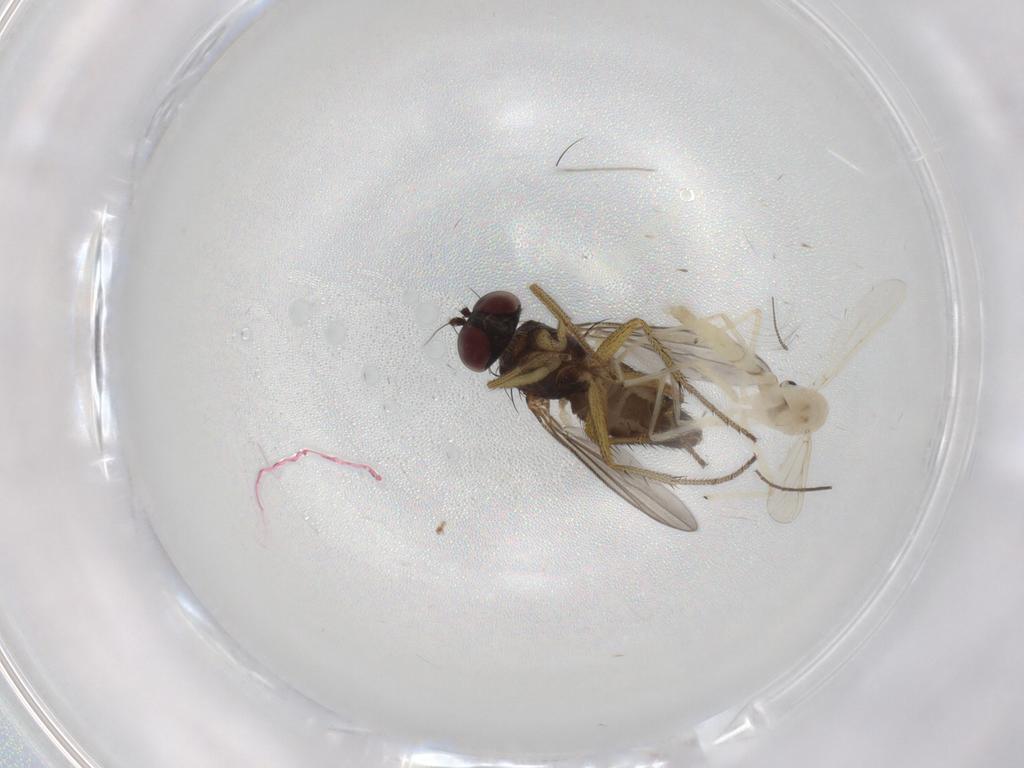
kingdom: Animalia
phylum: Arthropoda
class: Insecta
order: Diptera
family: Chironomidae
